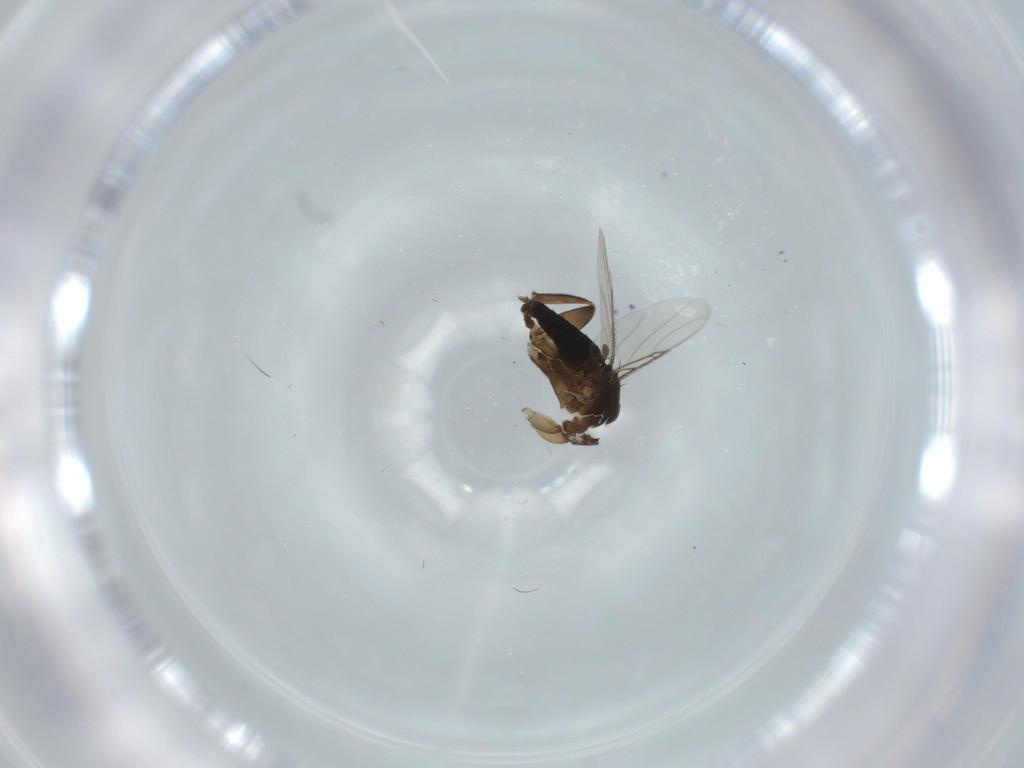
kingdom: Animalia
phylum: Arthropoda
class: Insecta
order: Diptera
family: Phoridae
